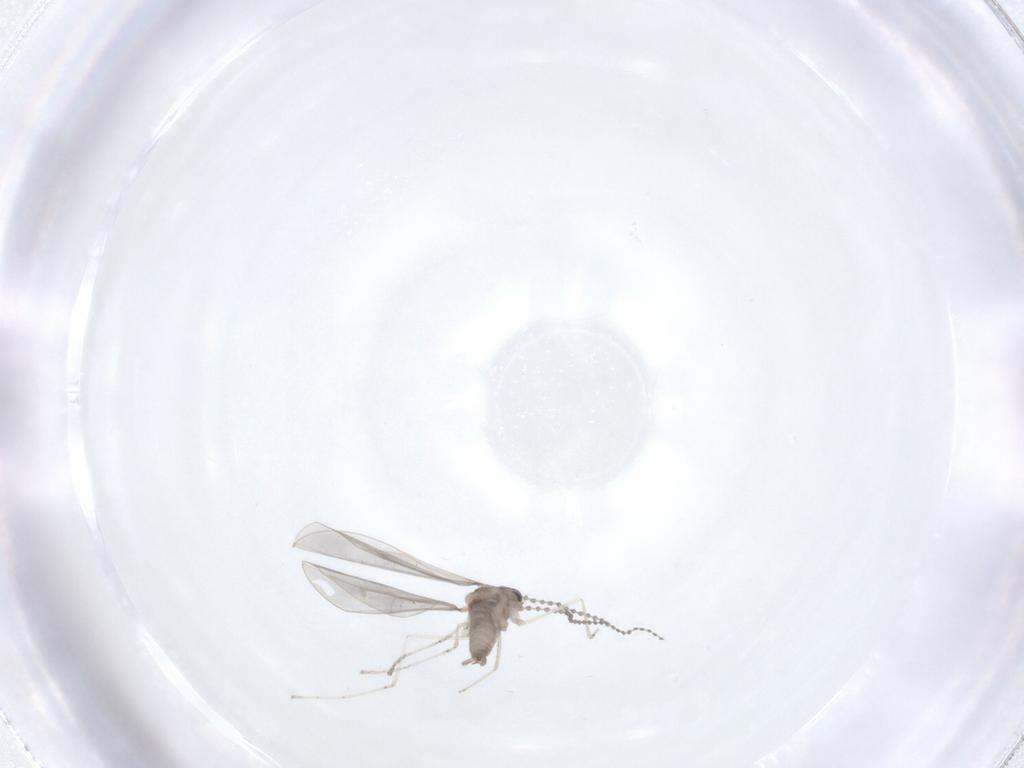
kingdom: Animalia
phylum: Arthropoda
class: Insecta
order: Diptera
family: Cecidomyiidae
